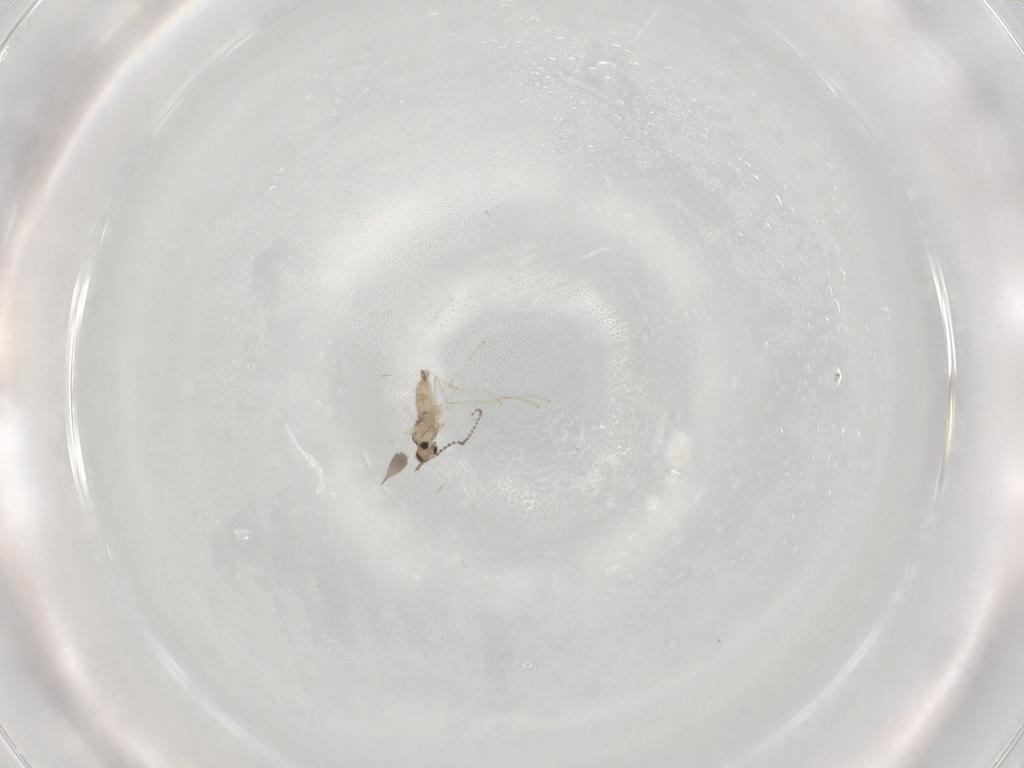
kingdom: Animalia
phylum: Arthropoda
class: Insecta
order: Diptera
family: Cecidomyiidae
